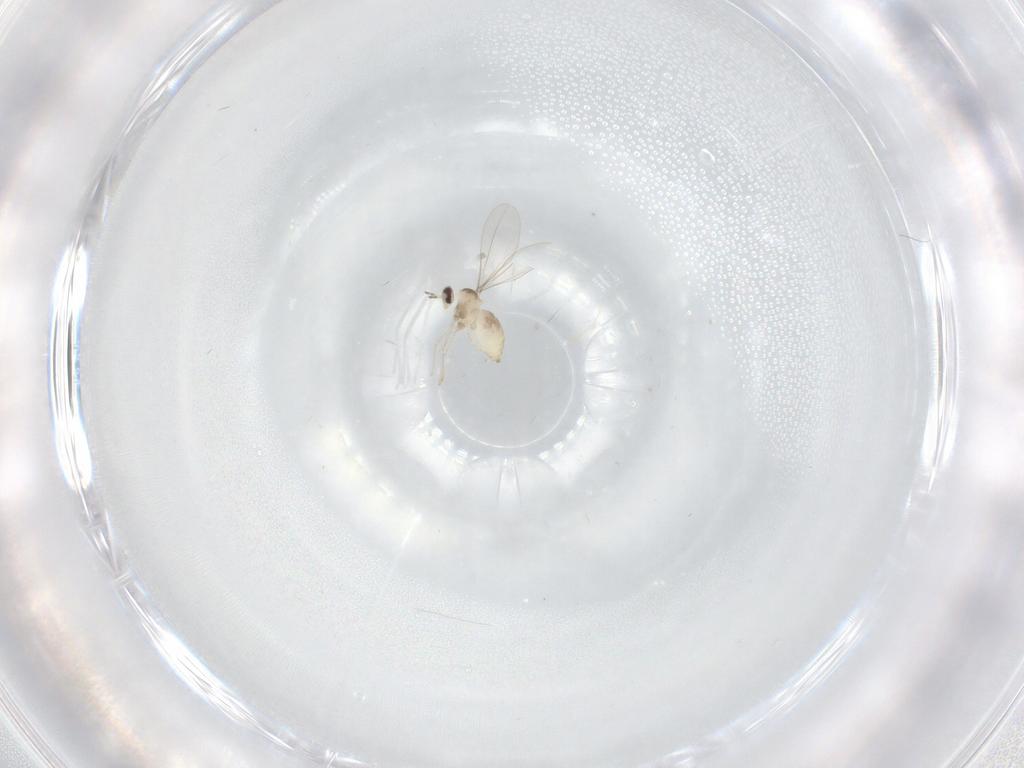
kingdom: Animalia
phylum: Arthropoda
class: Insecta
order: Diptera
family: Cecidomyiidae
